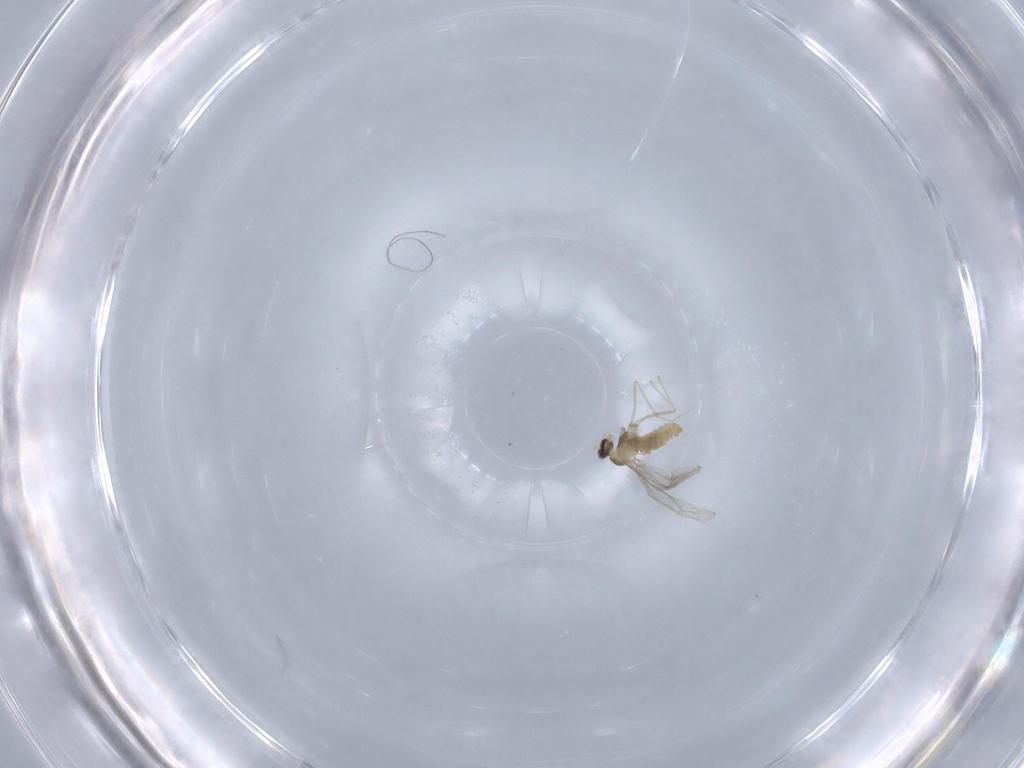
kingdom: Animalia
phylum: Arthropoda
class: Insecta
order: Diptera
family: Cecidomyiidae
